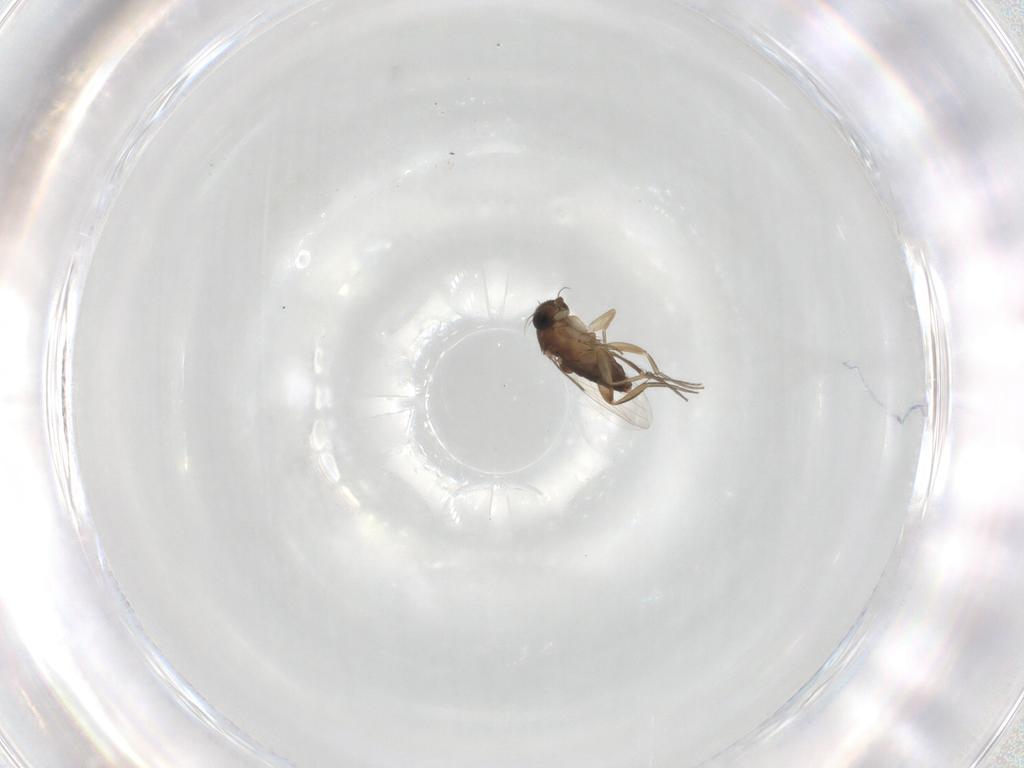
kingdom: Animalia
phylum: Arthropoda
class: Insecta
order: Diptera
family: Phoridae
